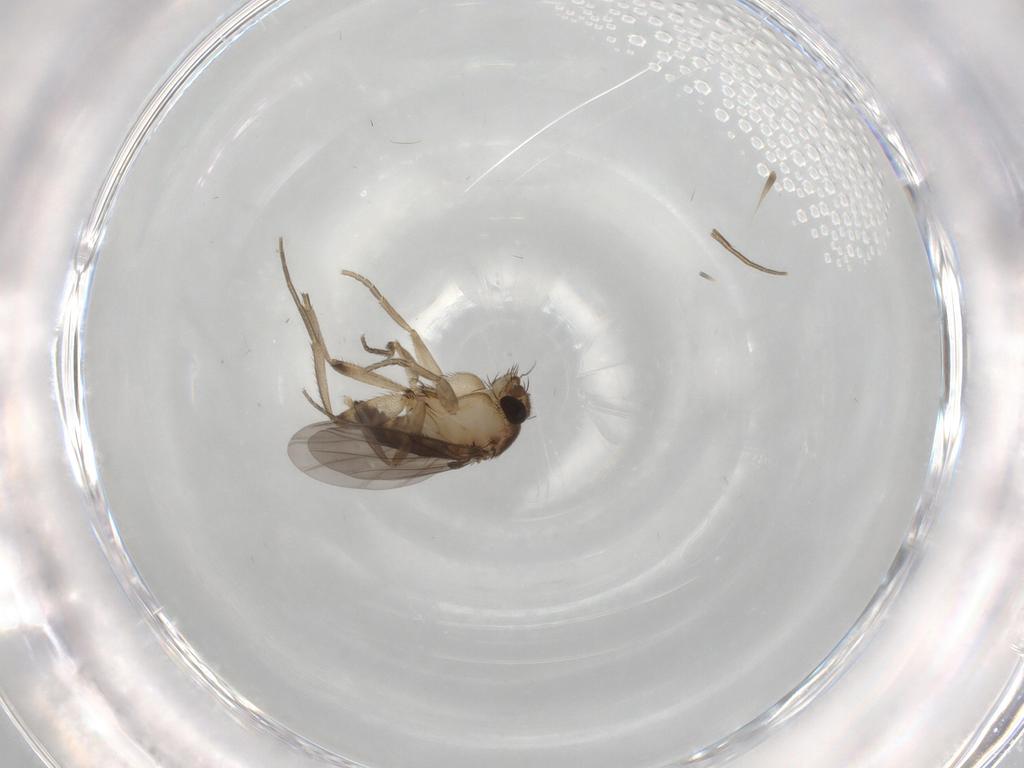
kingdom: Animalia
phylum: Arthropoda
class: Insecta
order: Diptera
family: Phoridae
